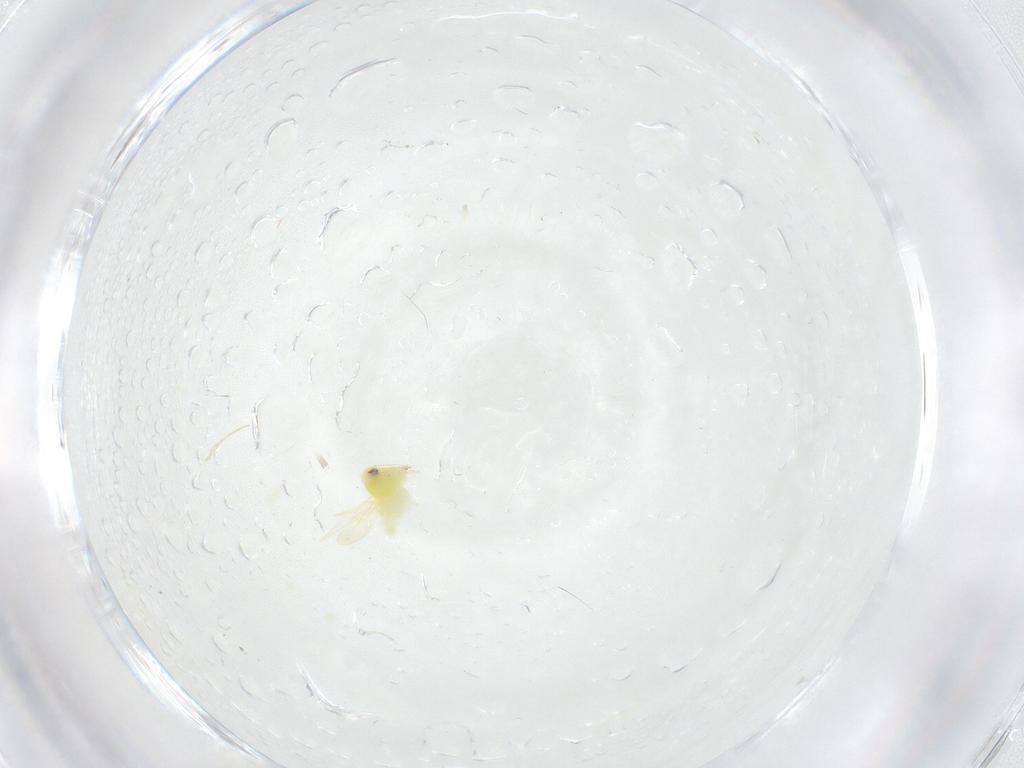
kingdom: Animalia
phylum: Arthropoda
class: Insecta
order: Hemiptera
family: Aleyrodidae
